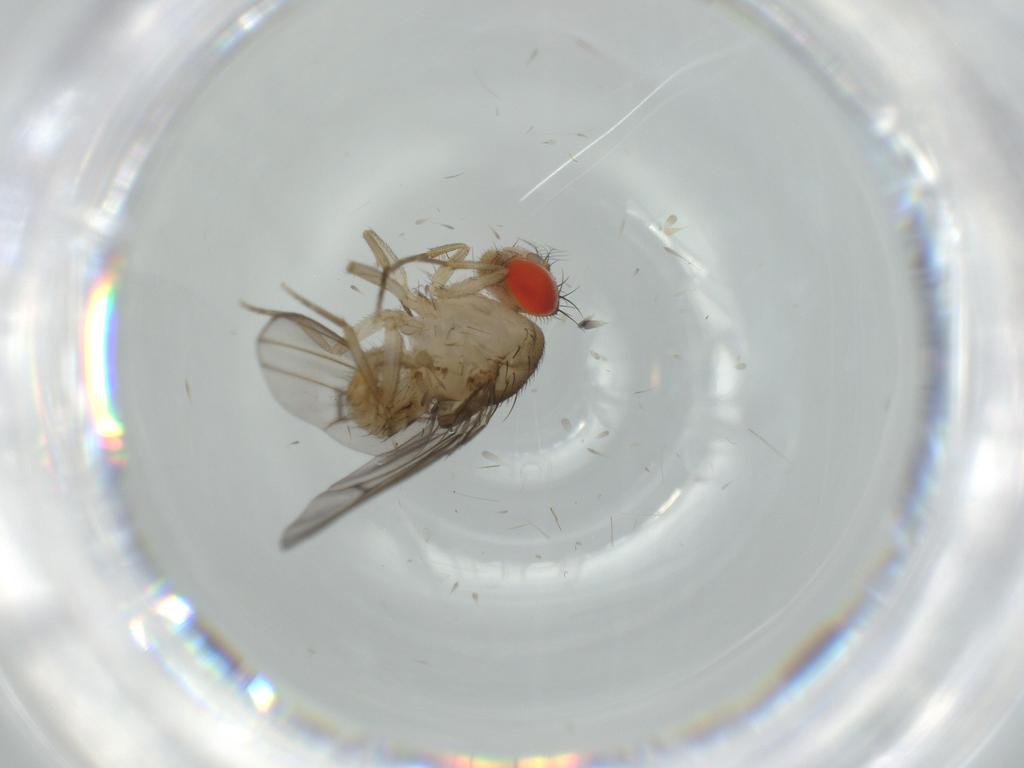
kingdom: Animalia
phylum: Arthropoda
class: Insecta
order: Diptera
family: Drosophilidae
